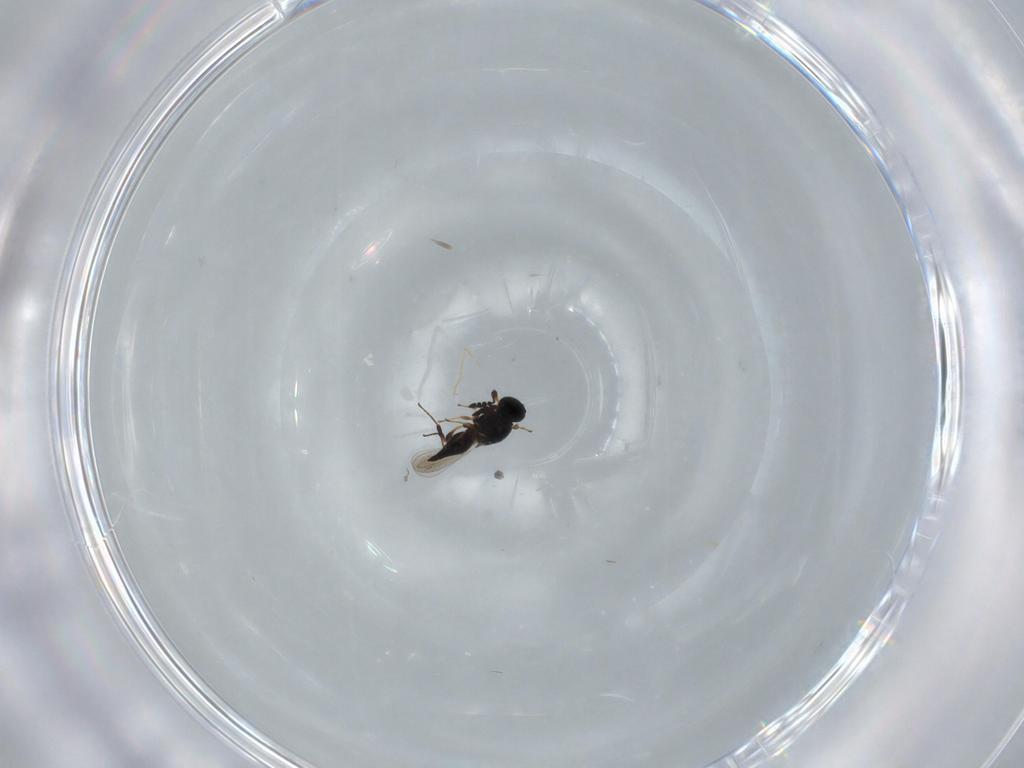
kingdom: Animalia
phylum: Arthropoda
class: Insecta
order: Hymenoptera
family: Platygastridae
